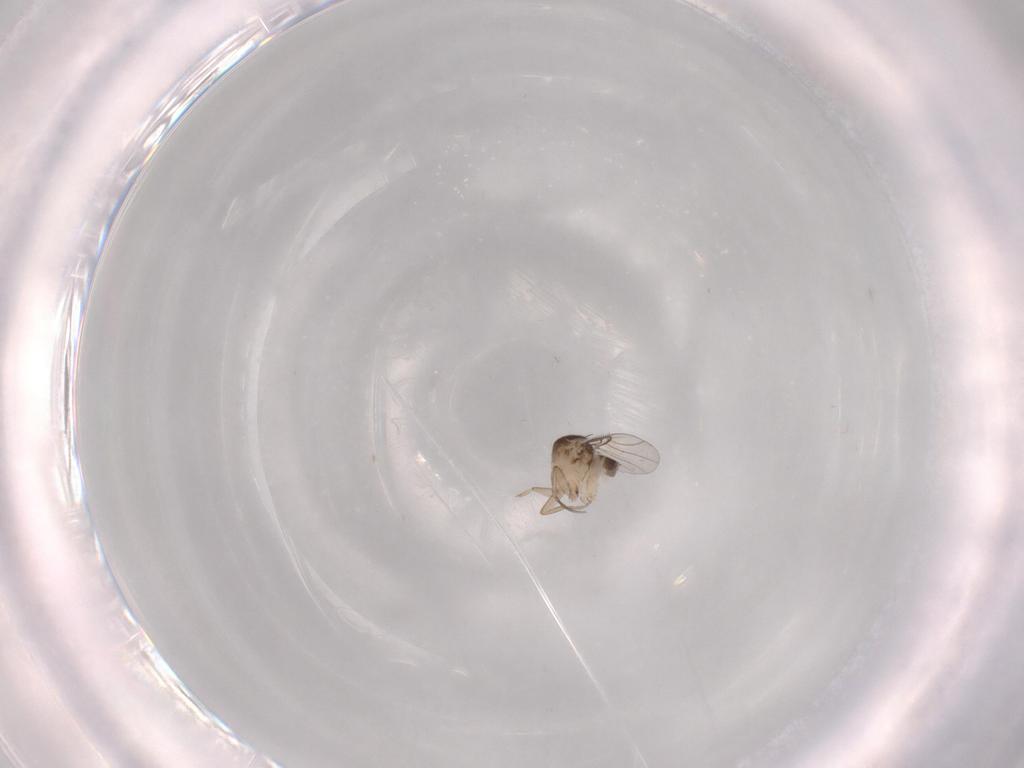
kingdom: Animalia
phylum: Arthropoda
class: Insecta
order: Diptera
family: Phoridae
